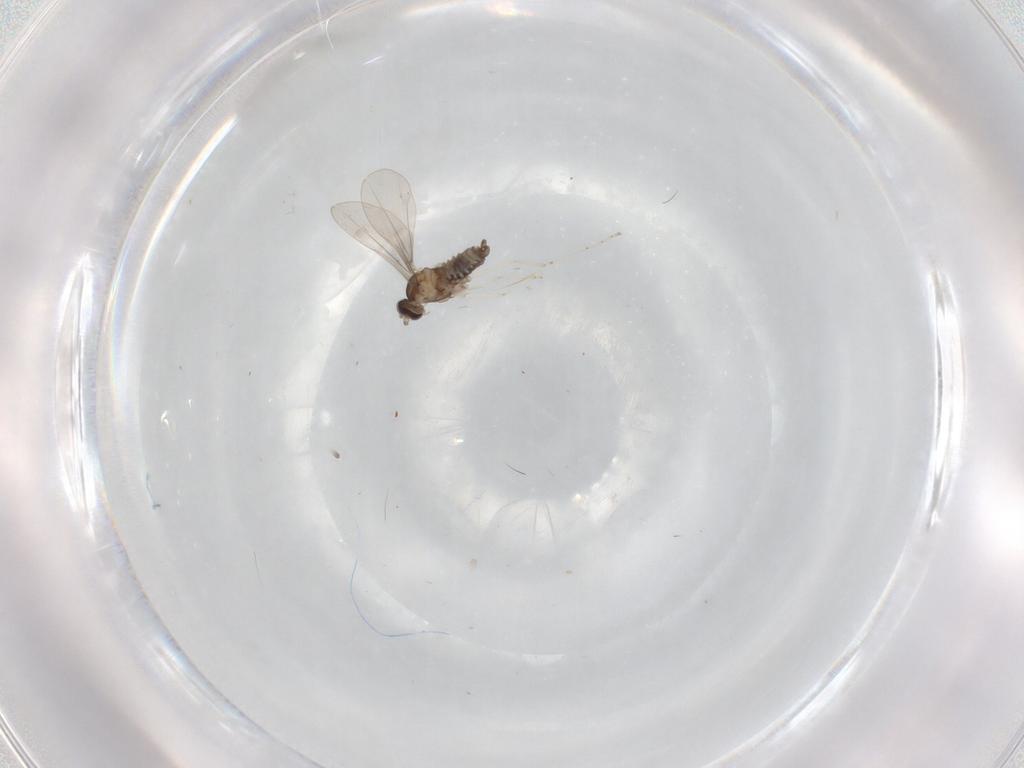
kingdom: Animalia
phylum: Arthropoda
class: Insecta
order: Diptera
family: Cecidomyiidae
